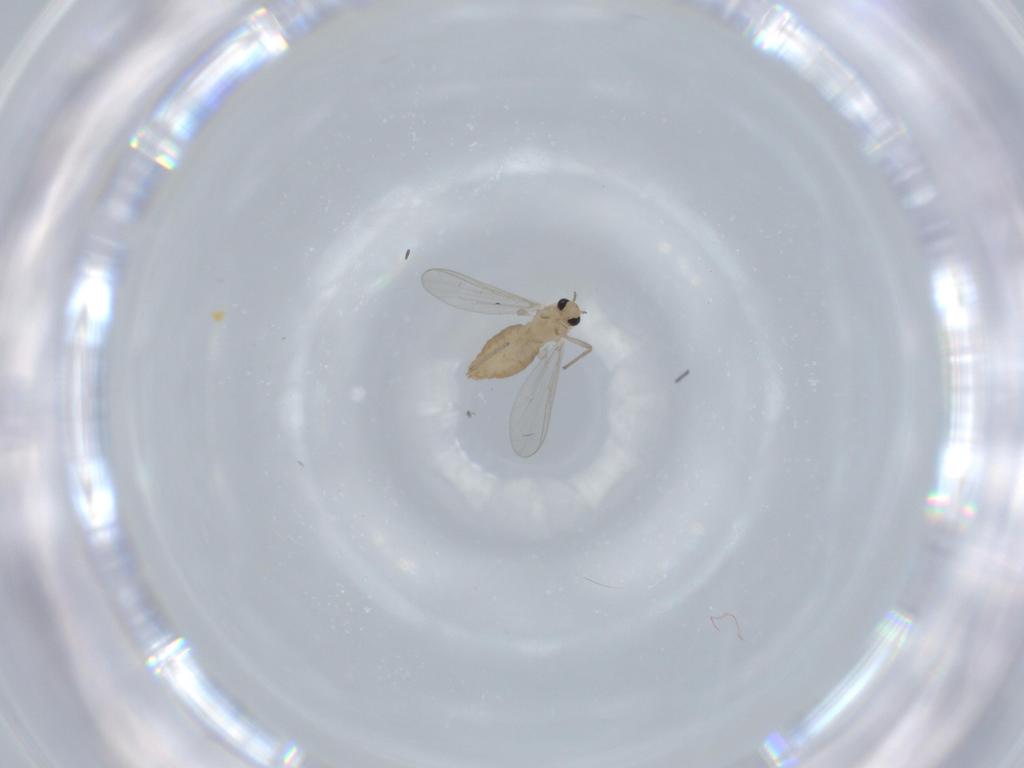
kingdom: Animalia
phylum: Arthropoda
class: Insecta
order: Diptera
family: Chironomidae
